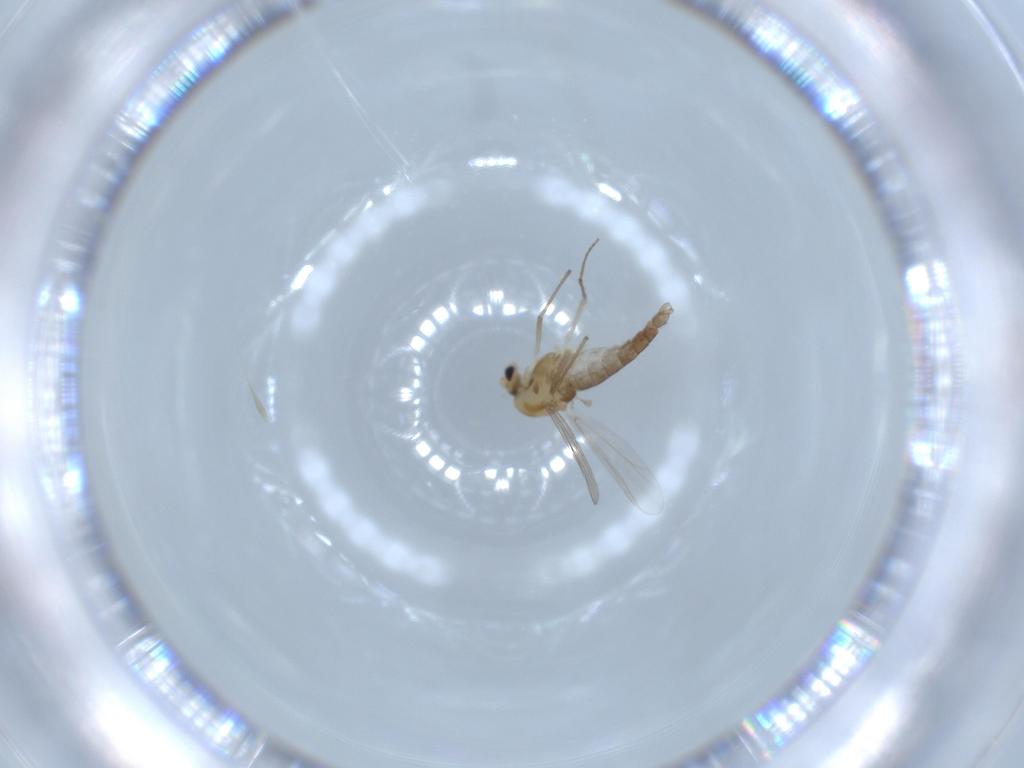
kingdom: Animalia
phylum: Arthropoda
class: Insecta
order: Diptera
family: Chironomidae
